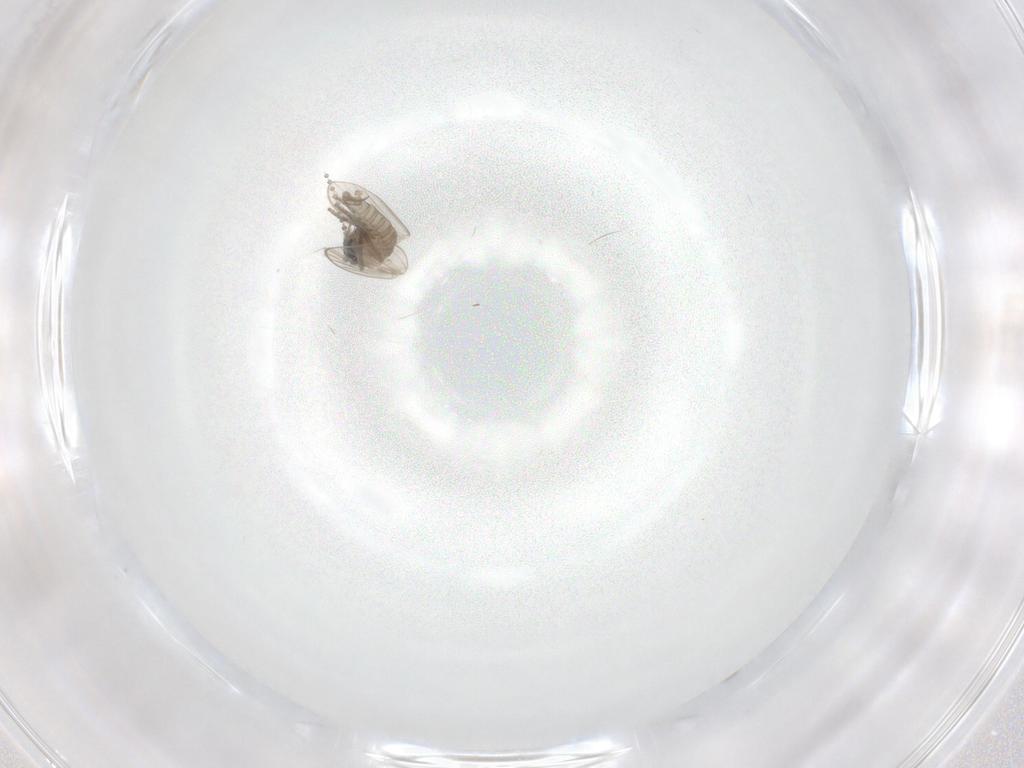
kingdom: Animalia
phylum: Arthropoda
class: Insecta
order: Diptera
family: Psychodidae
